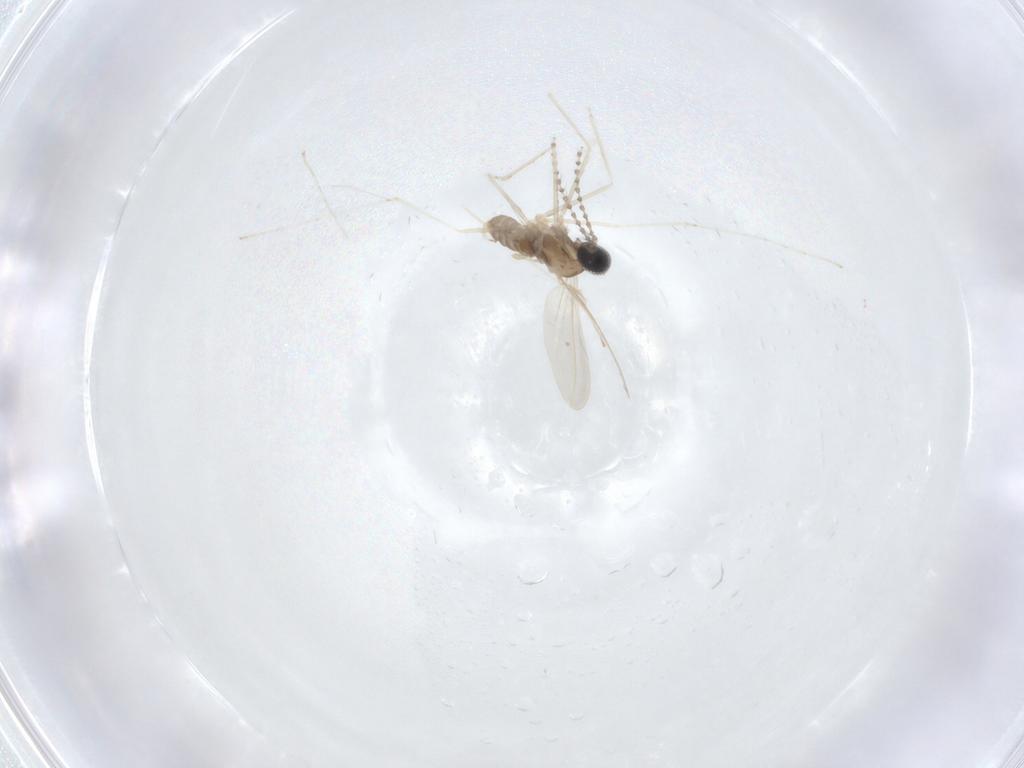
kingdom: Animalia
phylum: Arthropoda
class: Insecta
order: Diptera
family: Cecidomyiidae
